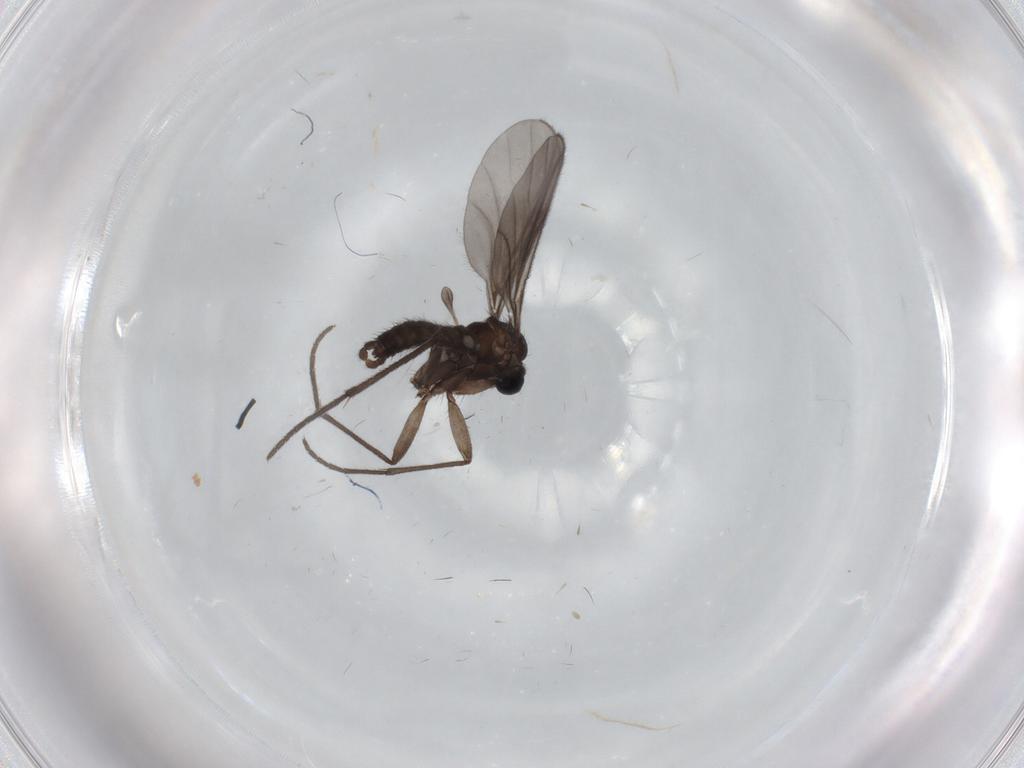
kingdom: Animalia
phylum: Arthropoda
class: Insecta
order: Diptera
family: Sciaridae
